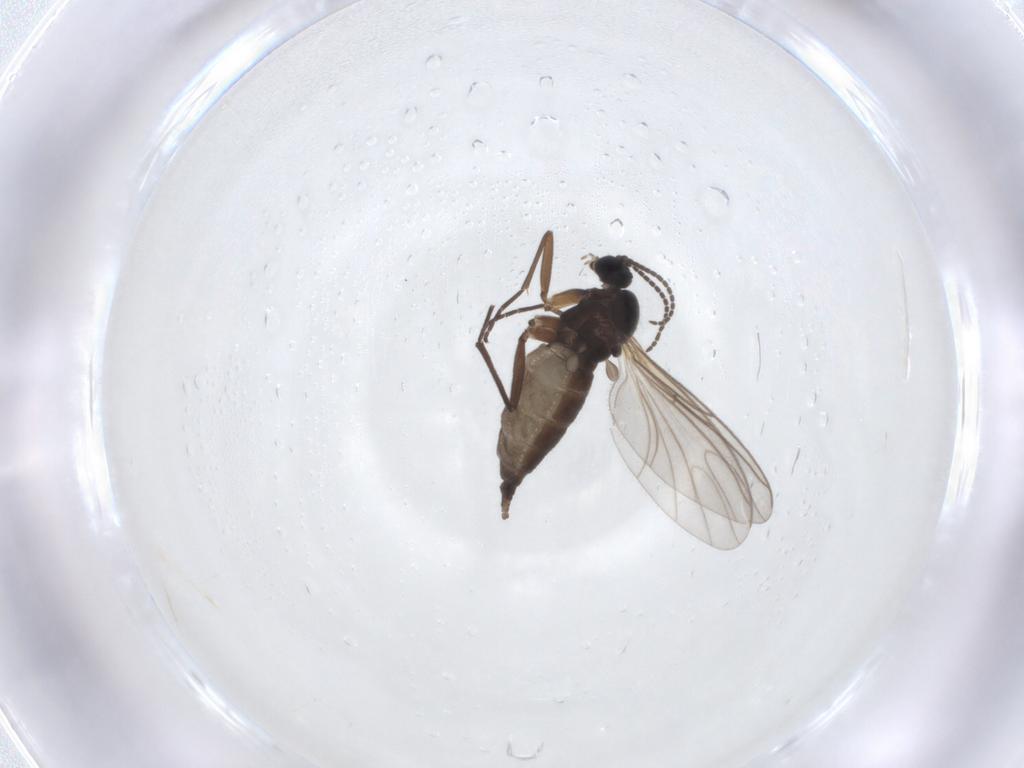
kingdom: Animalia
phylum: Arthropoda
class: Insecta
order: Diptera
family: Sciaridae
